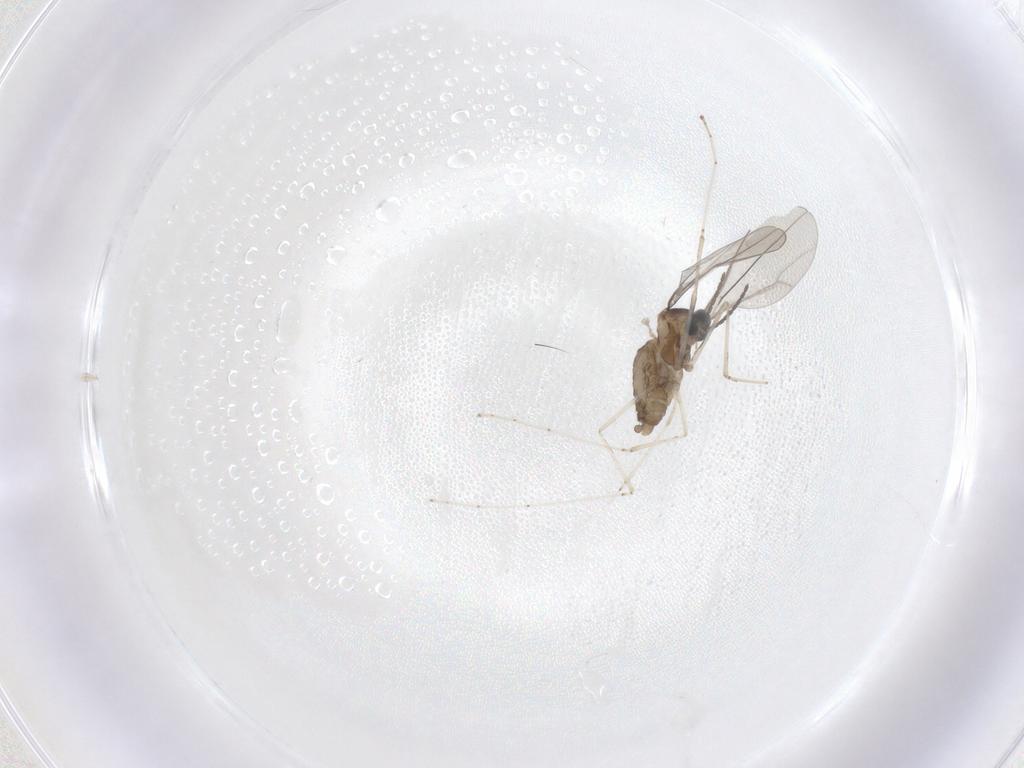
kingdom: Animalia
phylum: Arthropoda
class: Insecta
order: Diptera
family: Cecidomyiidae
